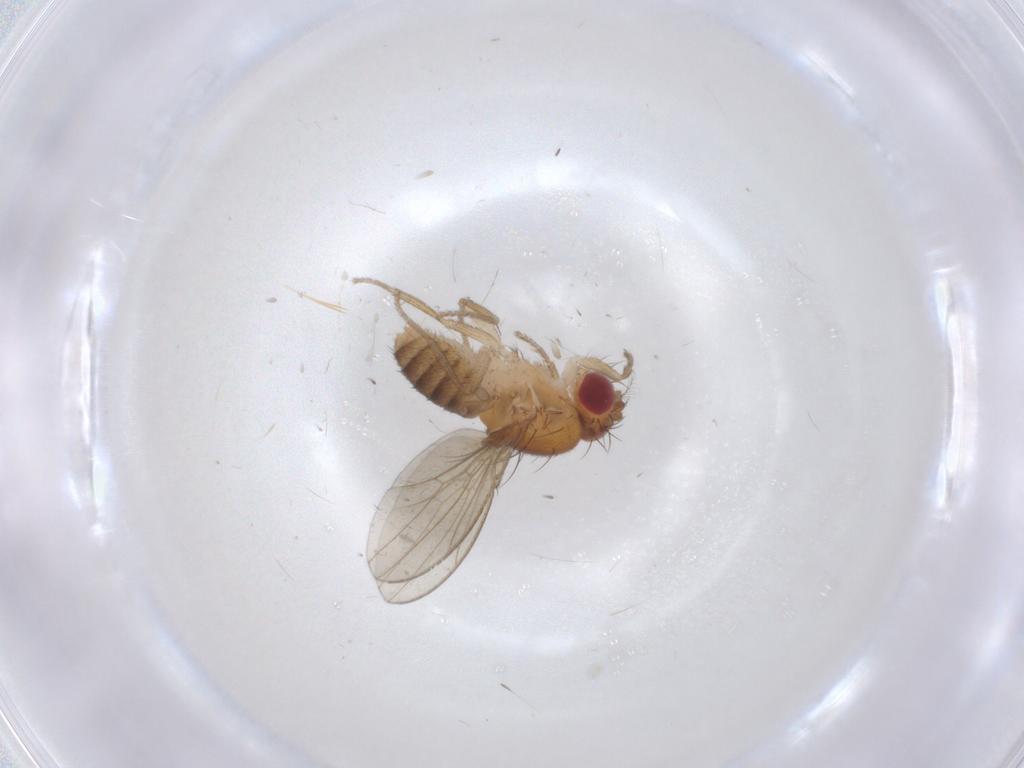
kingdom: Animalia
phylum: Arthropoda
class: Insecta
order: Diptera
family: Drosophilidae
